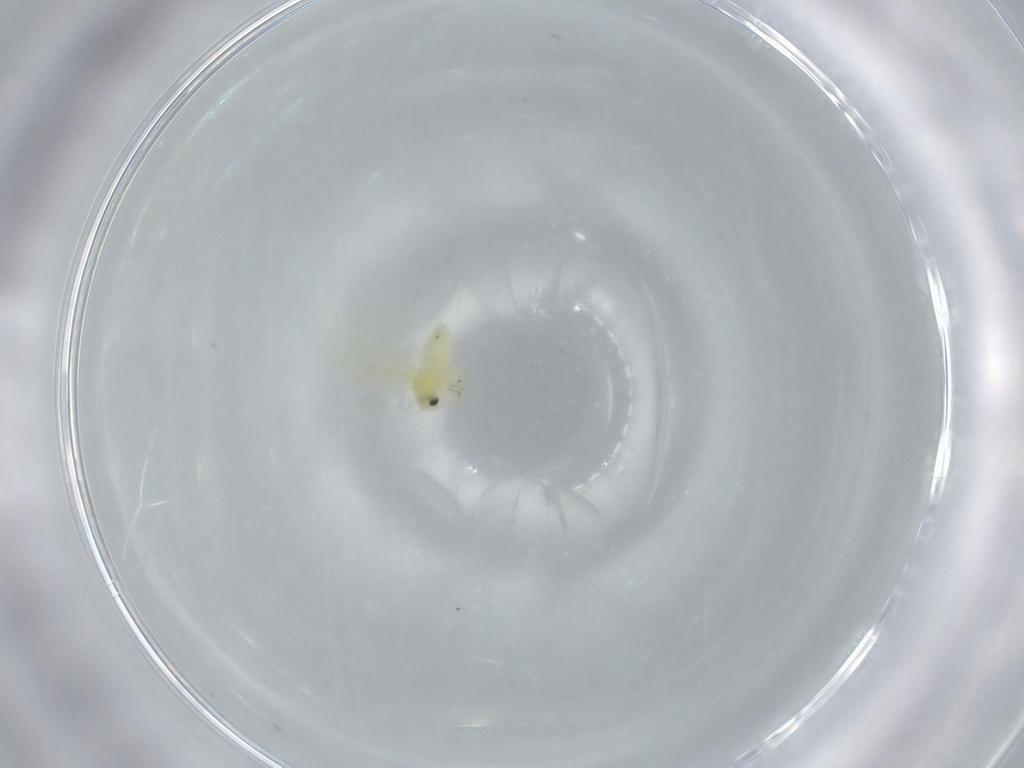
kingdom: Animalia
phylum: Arthropoda
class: Insecta
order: Hemiptera
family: Aleyrodidae
